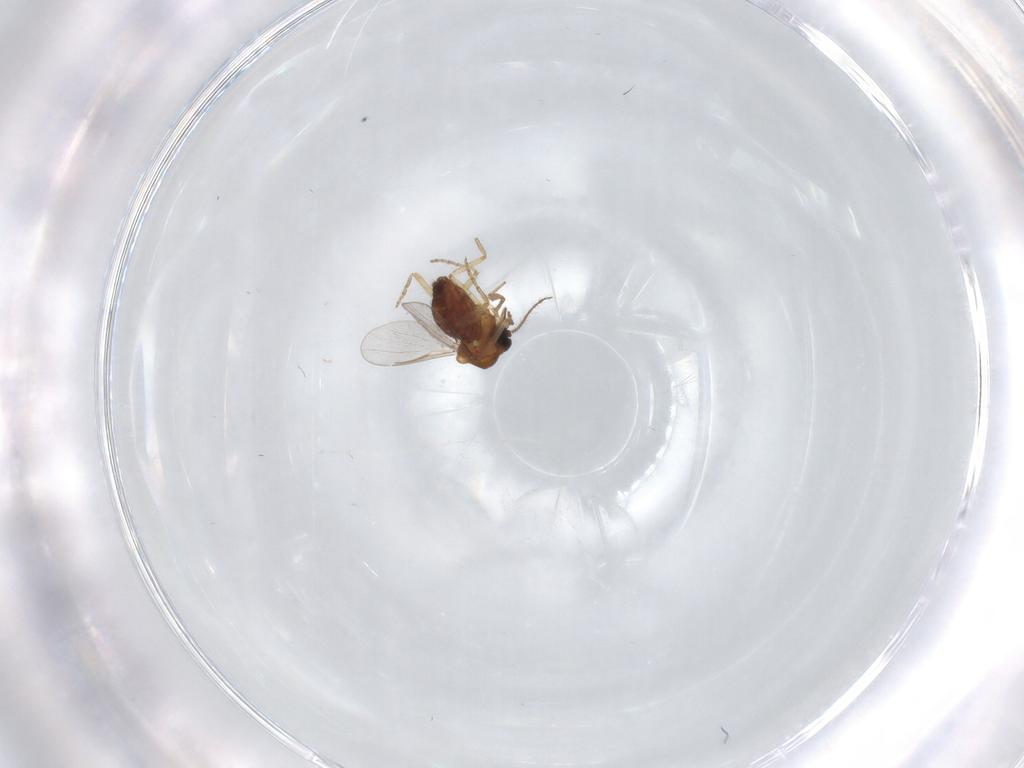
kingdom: Animalia
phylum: Arthropoda
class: Insecta
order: Diptera
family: Ceratopogonidae
